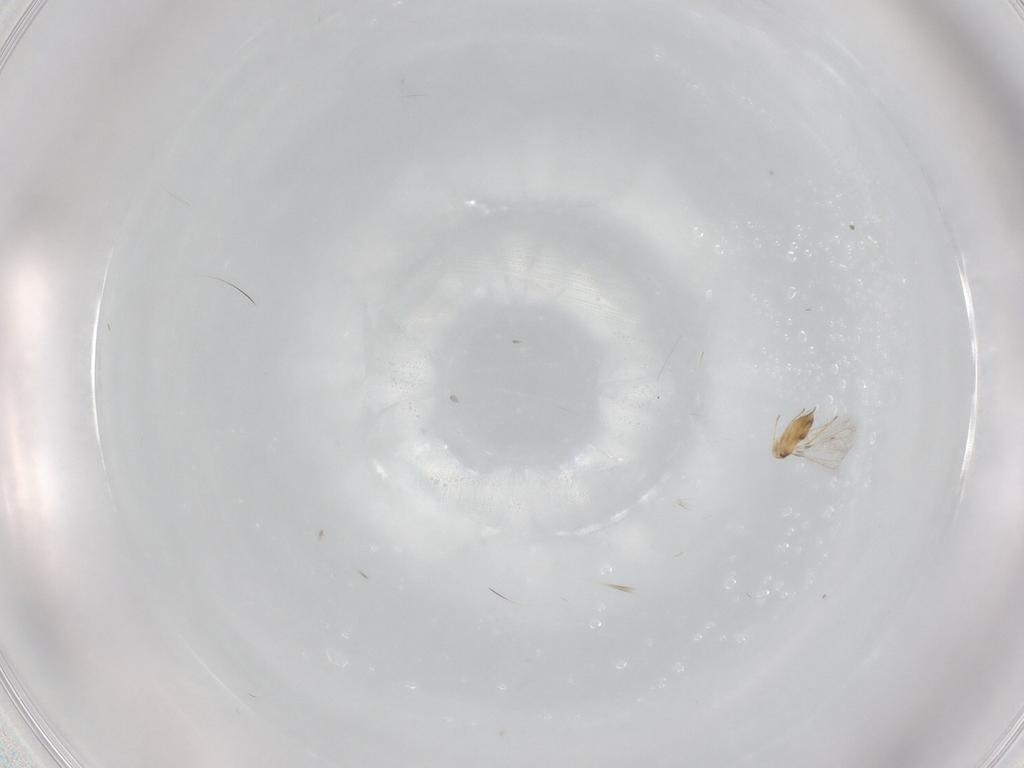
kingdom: Animalia
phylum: Arthropoda
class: Insecta
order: Hymenoptera
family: Mymaridae
